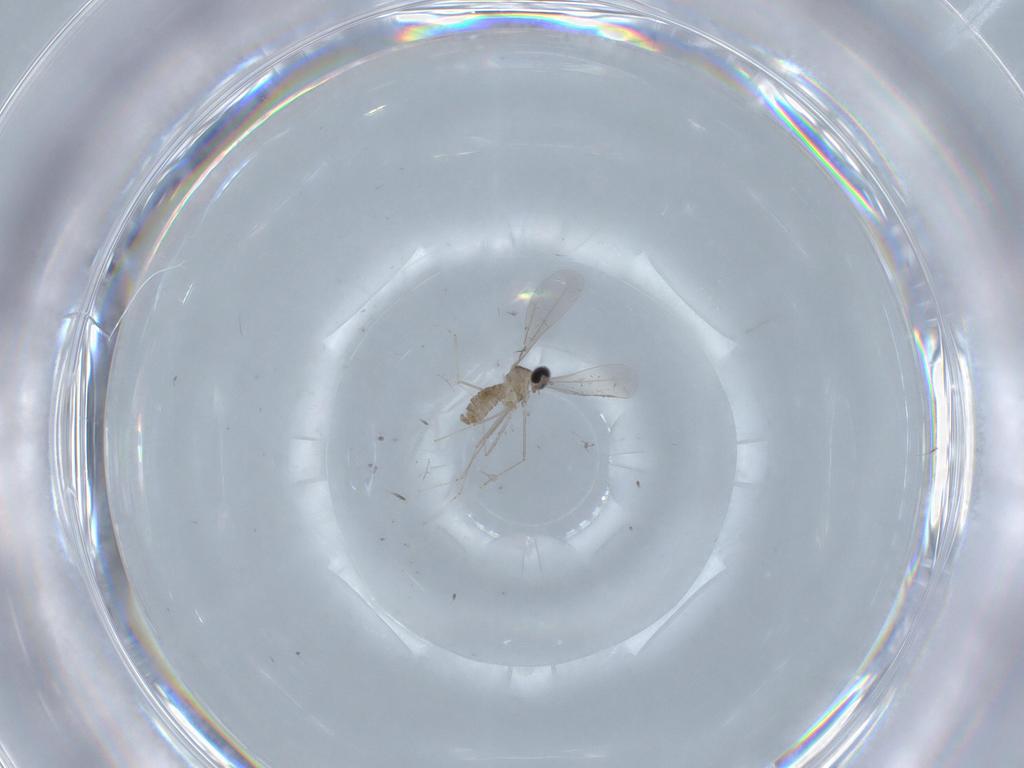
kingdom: Animalia
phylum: Arthropoda
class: Insecta
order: Diptera
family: Cecidomyiidae
